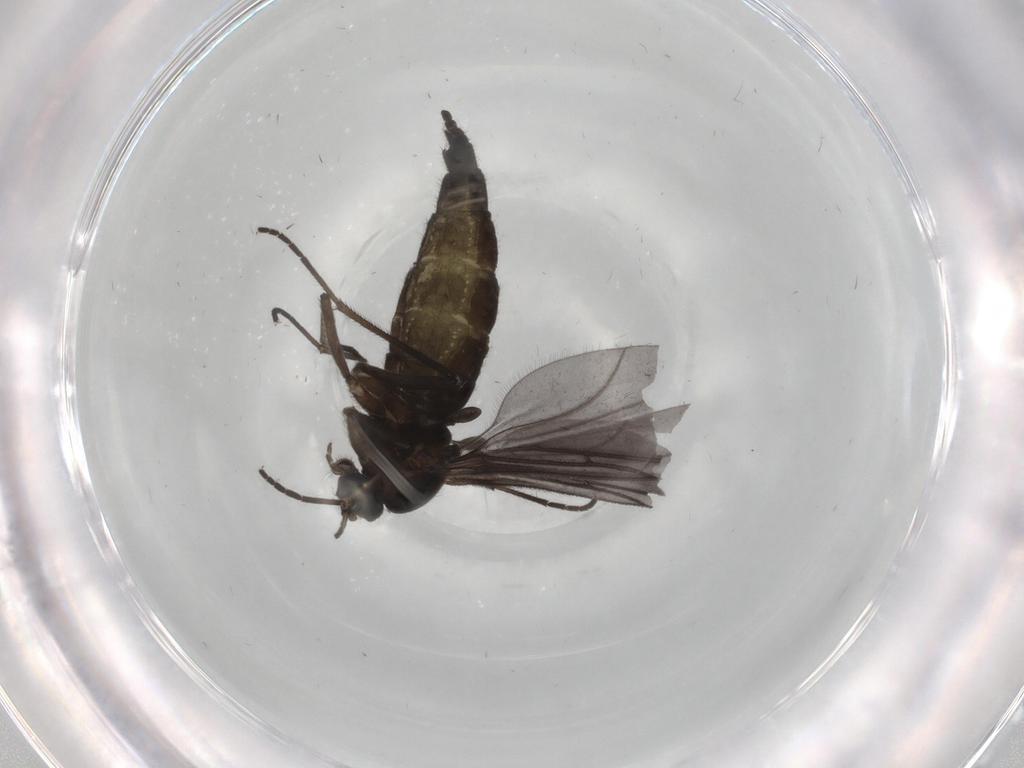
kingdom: Animalia
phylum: Arthropoda
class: Insecta
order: Diptera
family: Sciaridae
